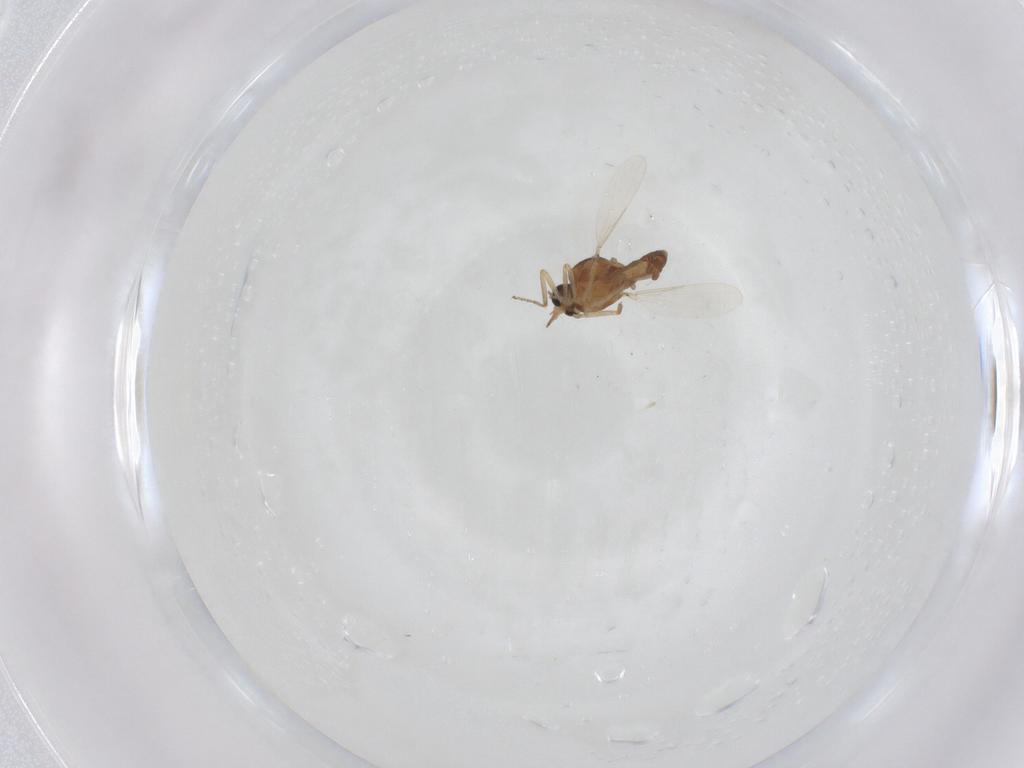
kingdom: Animalia
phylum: Arthropoda
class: Insecta
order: Diptera
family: Ceratopogonidae
